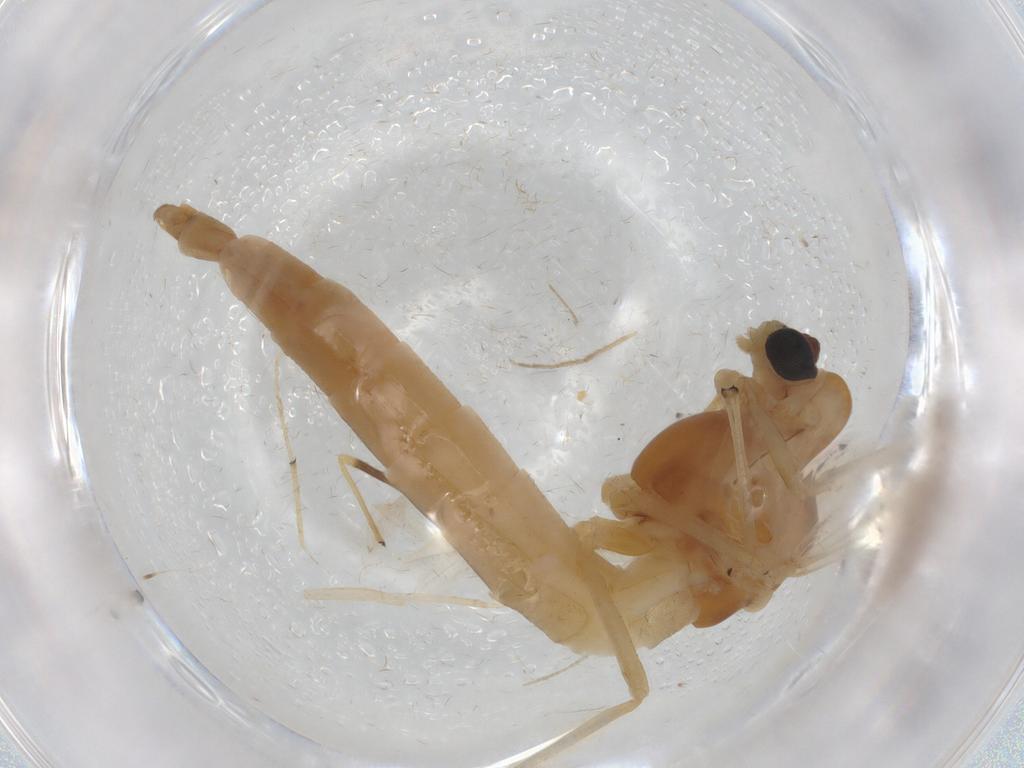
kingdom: Animalia
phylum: Arthropoda
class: Insecta
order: Diptera
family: Chironomidae
